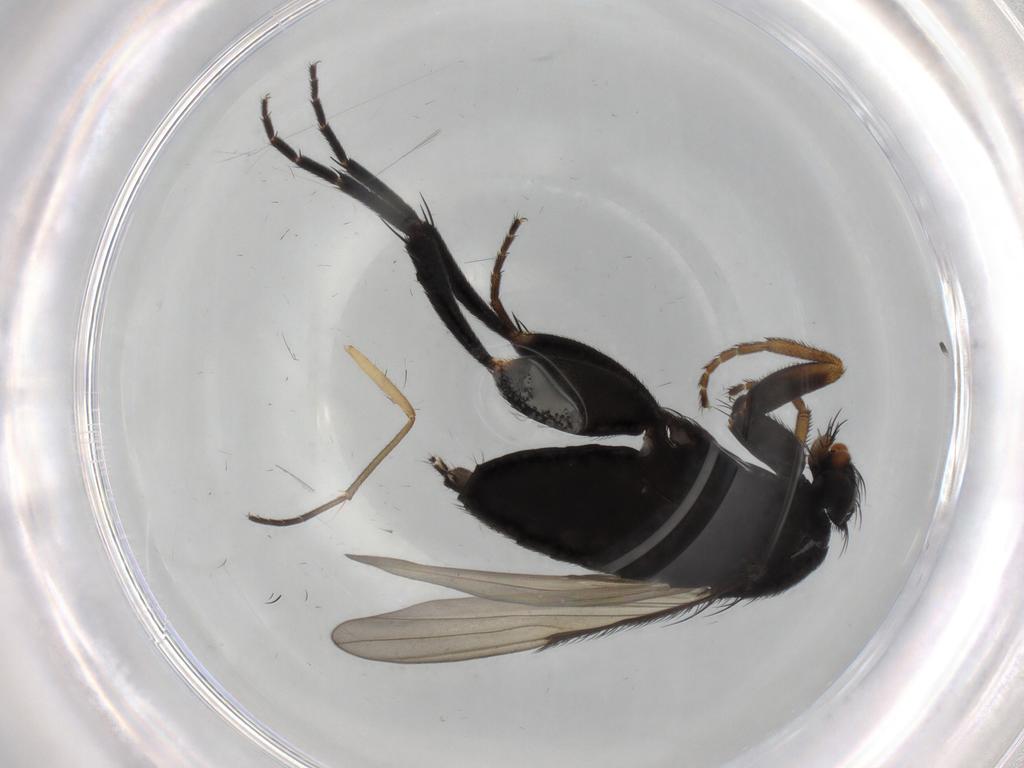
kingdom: Animalia
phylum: Arthropoda
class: Insecta
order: Diptera
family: Sciaridae
